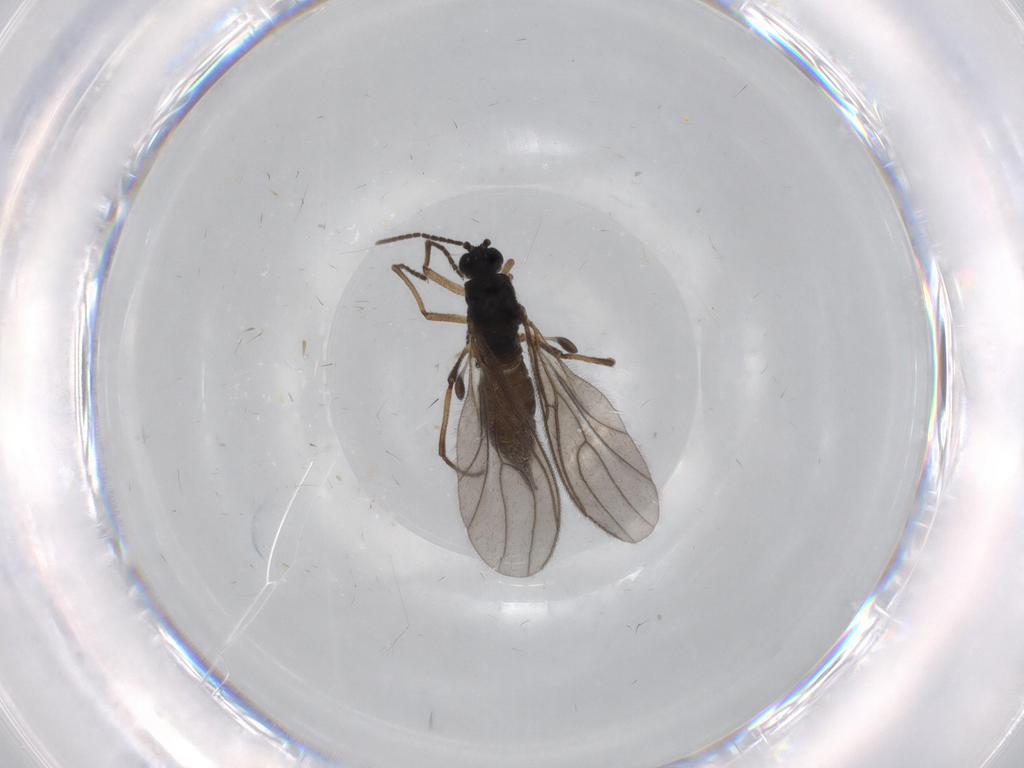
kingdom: Animalia
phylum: Arthropoda
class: Insecta
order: Diptera
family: Sciaridae
